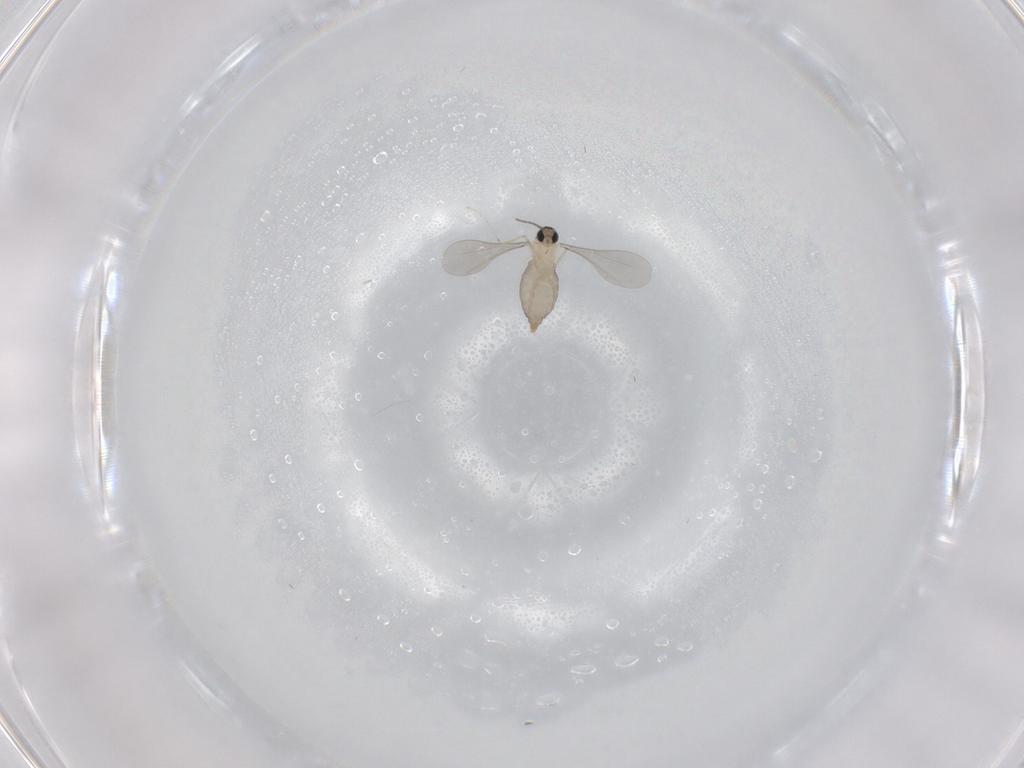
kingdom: Animalia
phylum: Arthropoda
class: Insecta
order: Diptera
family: Cecidomyiidae
